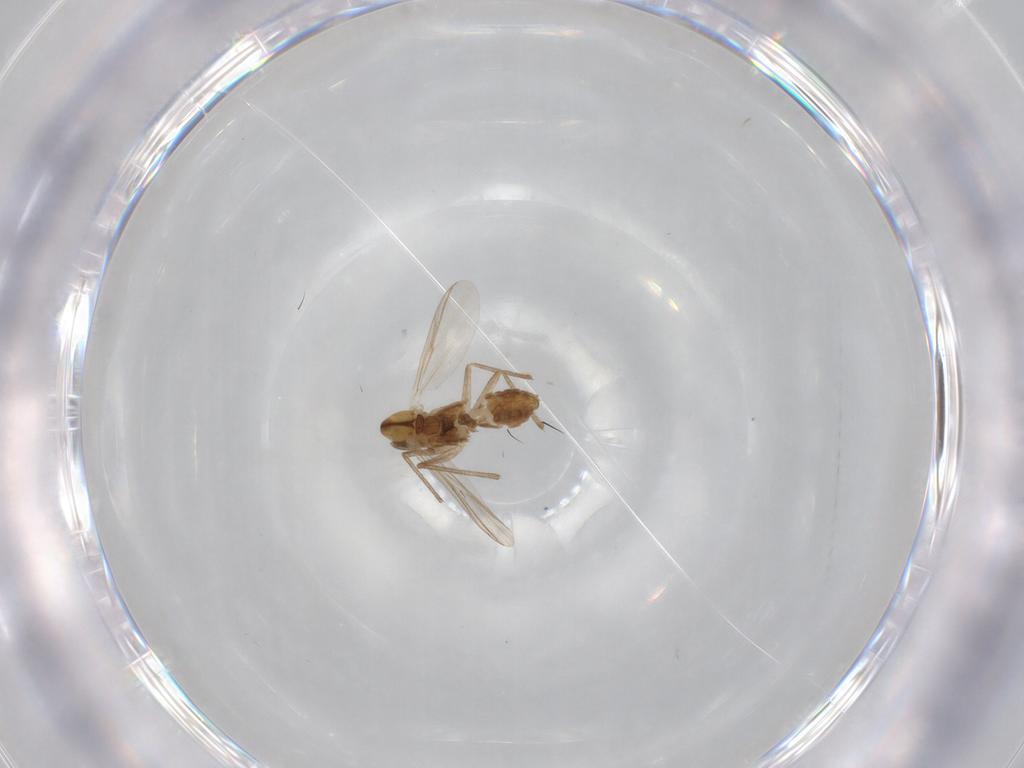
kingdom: Animalia
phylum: Arthropoda
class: Insecta
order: Diptera
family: Chironomidae
